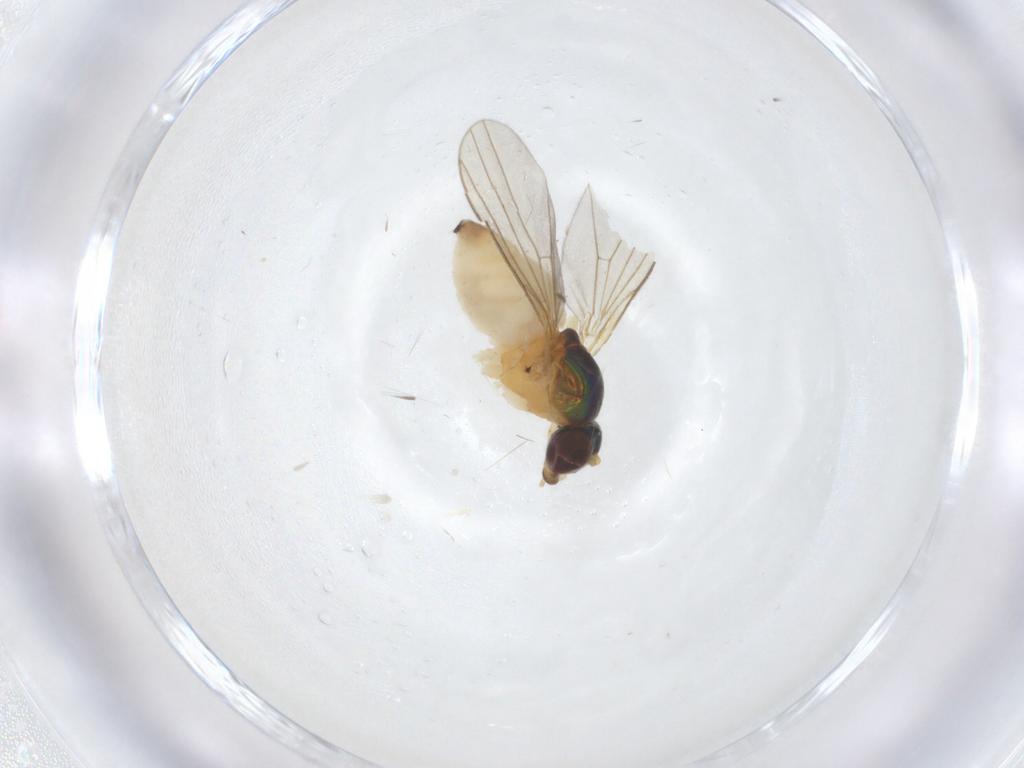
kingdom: Animalia
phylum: Arthropoda
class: Insecta
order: Diptera
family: Dolichopodidae
